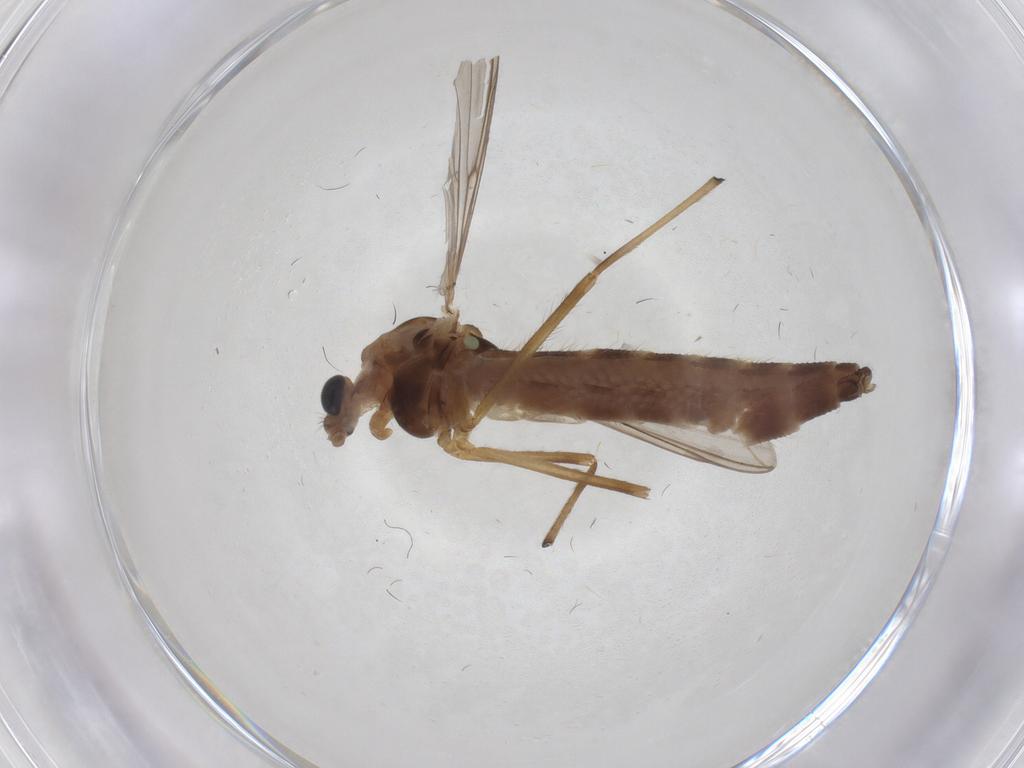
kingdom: Animalia
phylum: Arthropoda
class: Insecta
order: Diptera
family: Chironomidae
